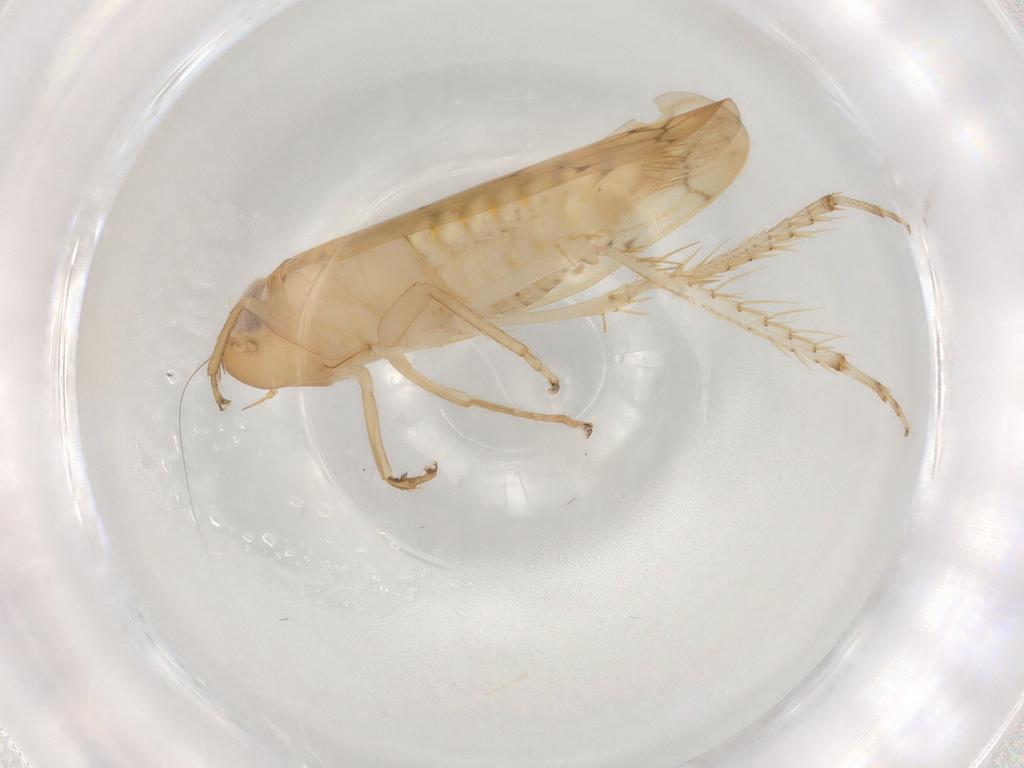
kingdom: Animalia
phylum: Arthropoda
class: Insecta
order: Hemiptera
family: Cicadellidae
